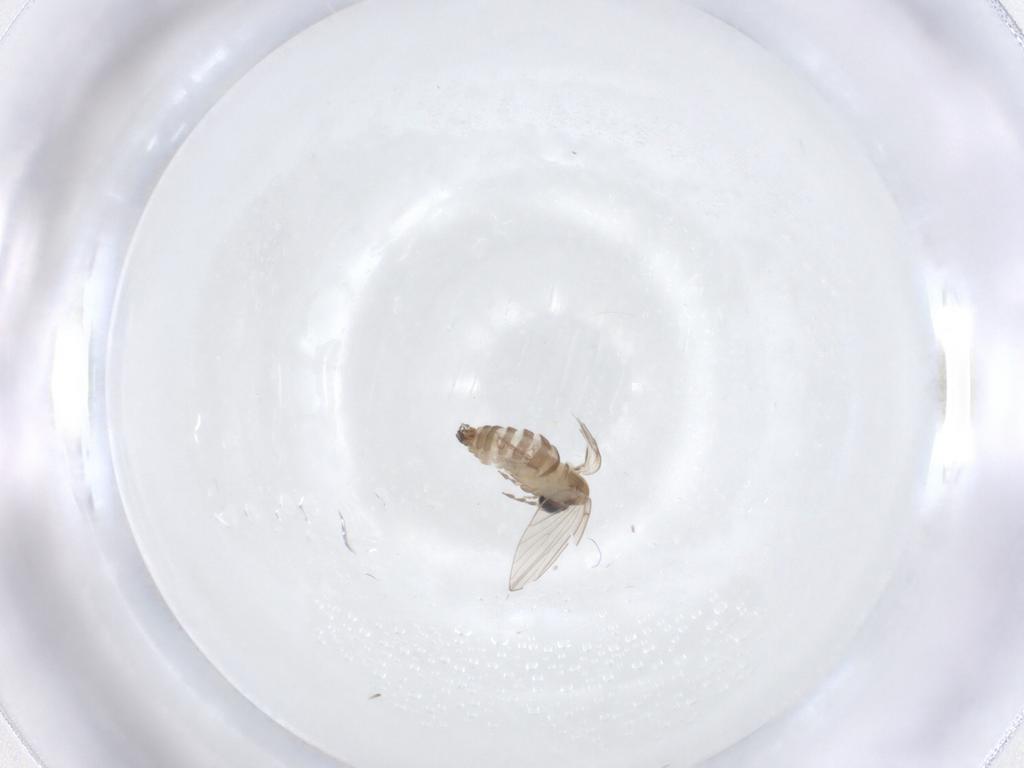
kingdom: Animalia
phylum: Arthropoda
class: Insecta
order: Diptera
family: Psychodidae
